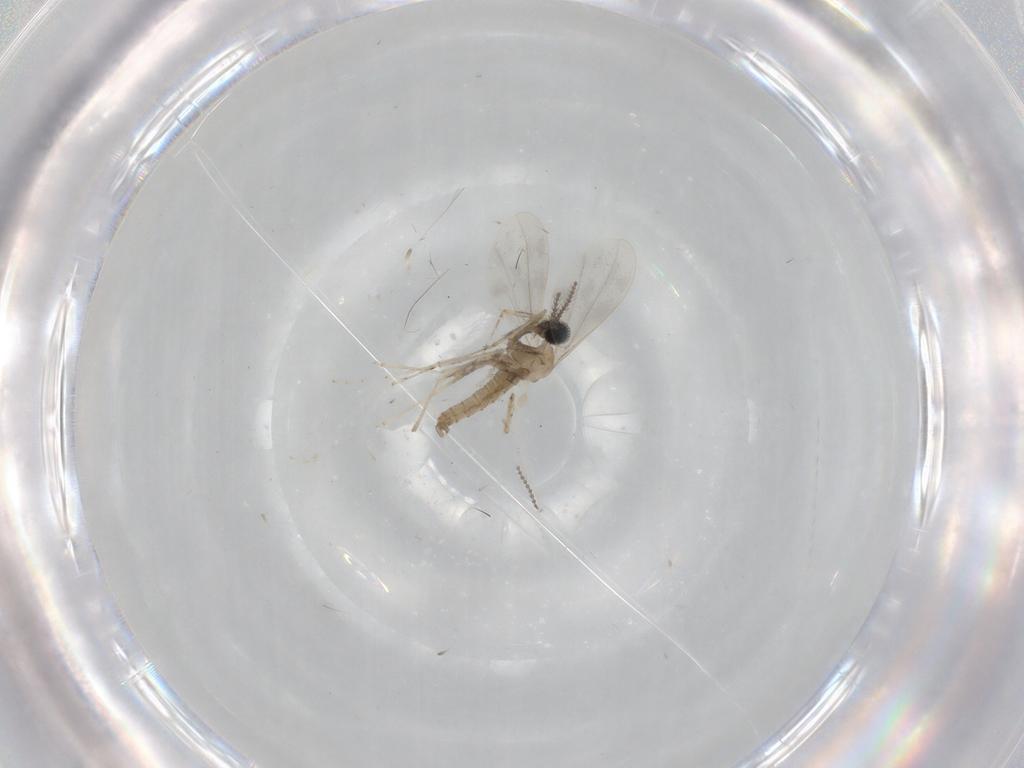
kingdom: Animalia
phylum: Arthropoda
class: Insecta
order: Diptera
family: Cecidomyiidae
